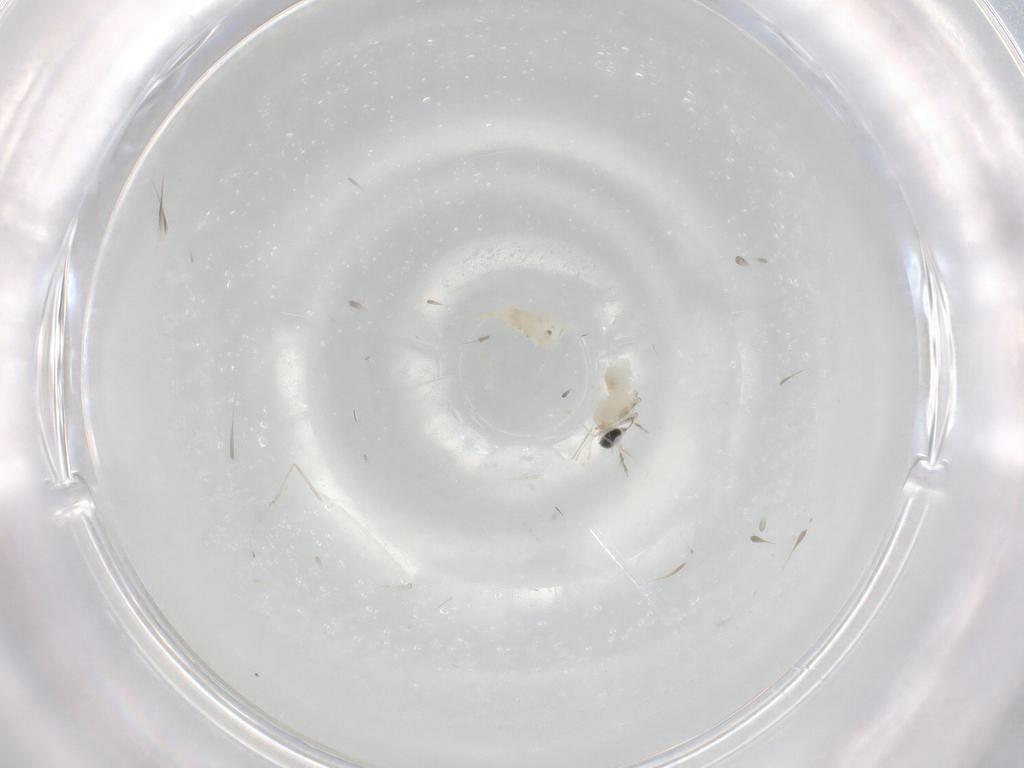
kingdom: Animalia
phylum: Arthropoda
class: Insecta
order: Diptera
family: Cecidomyiidae
